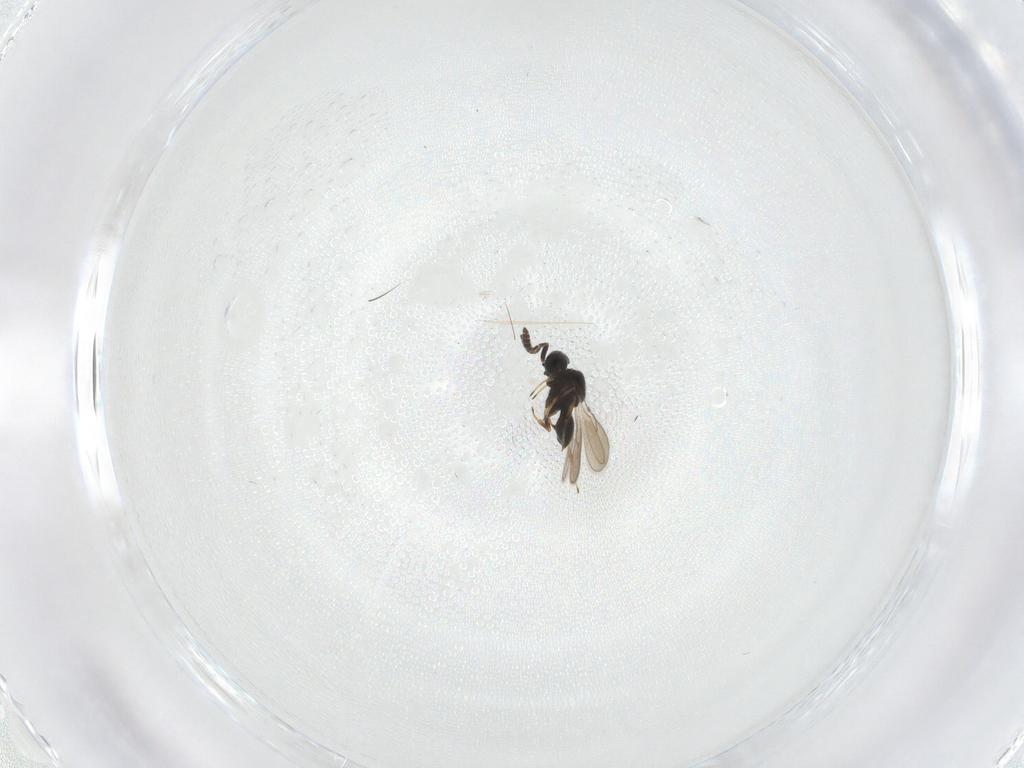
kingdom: Animalia
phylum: Arthropoda
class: Insecta
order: Hymenoptera
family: Scelionidae
